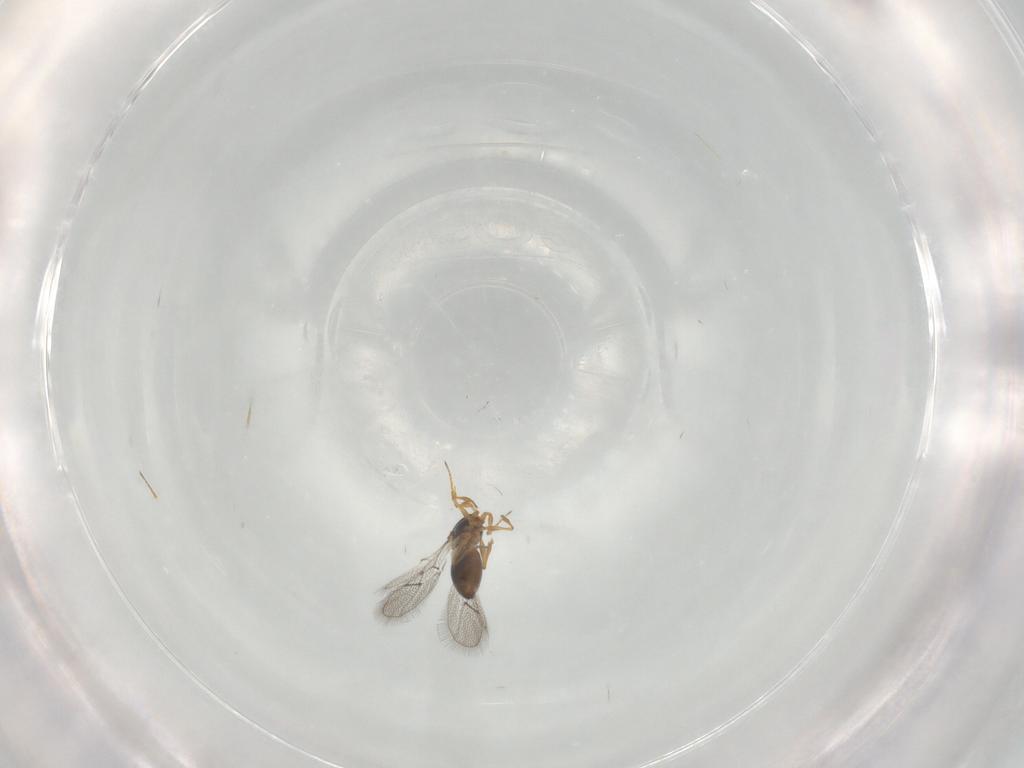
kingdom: Animalia
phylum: Arthropoda
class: Insecta
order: Hymenoptera
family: Figitidae
